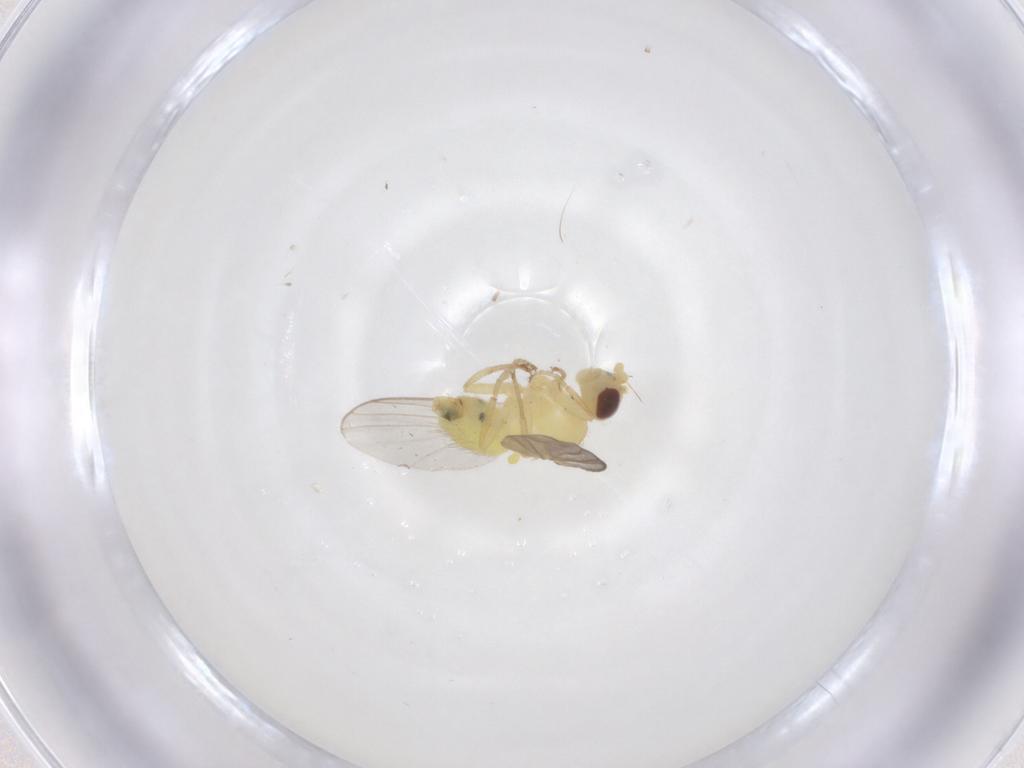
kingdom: Animalia
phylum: Arthropoda
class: Insecta
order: Diptera
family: Agromyzidae
